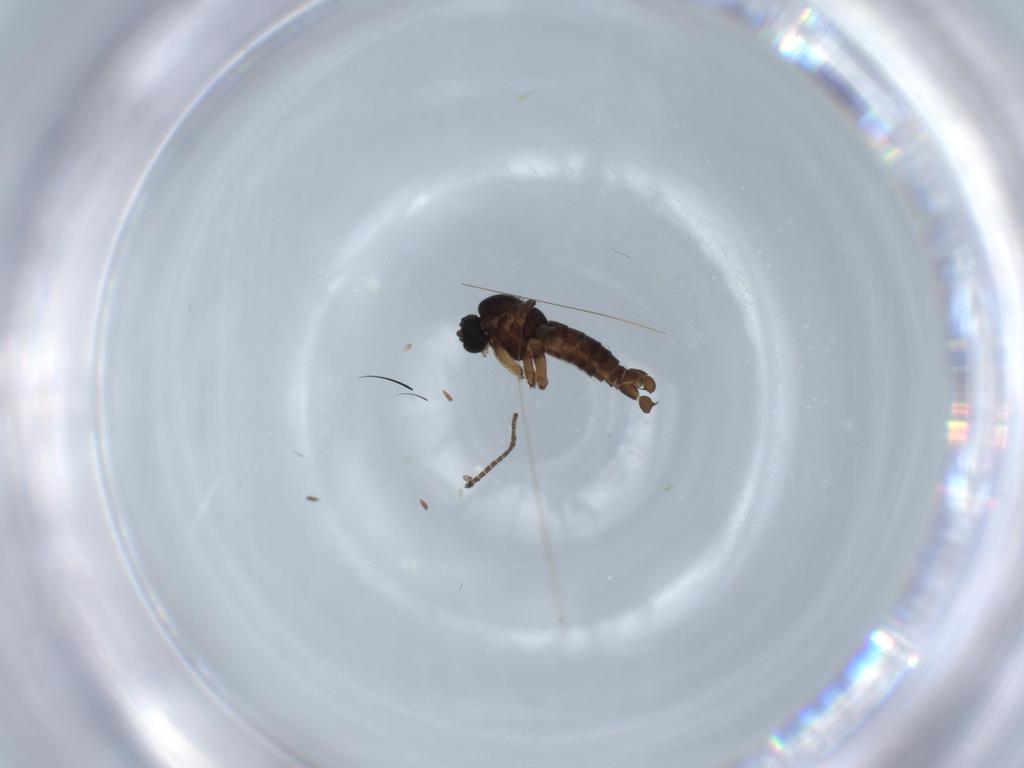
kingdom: Animalia
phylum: Arthropoda
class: Insecta
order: Diptera
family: Sciaridae
